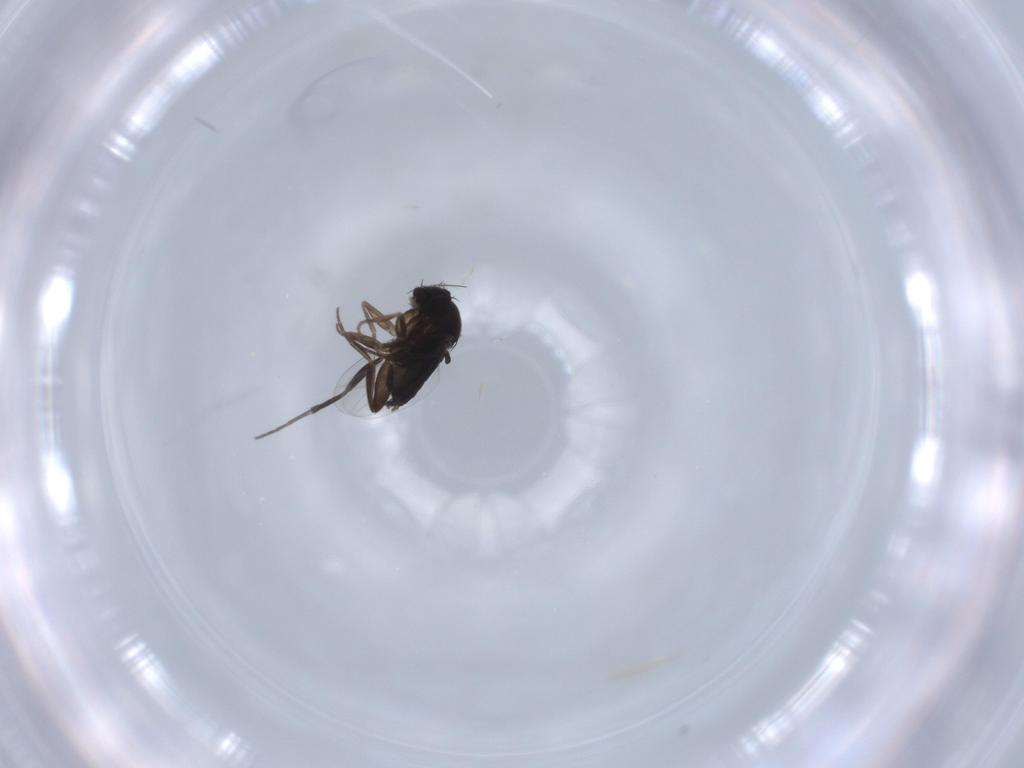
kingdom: Animalia
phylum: Arthropoda
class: Insecta
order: Diptera
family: Phoridae
